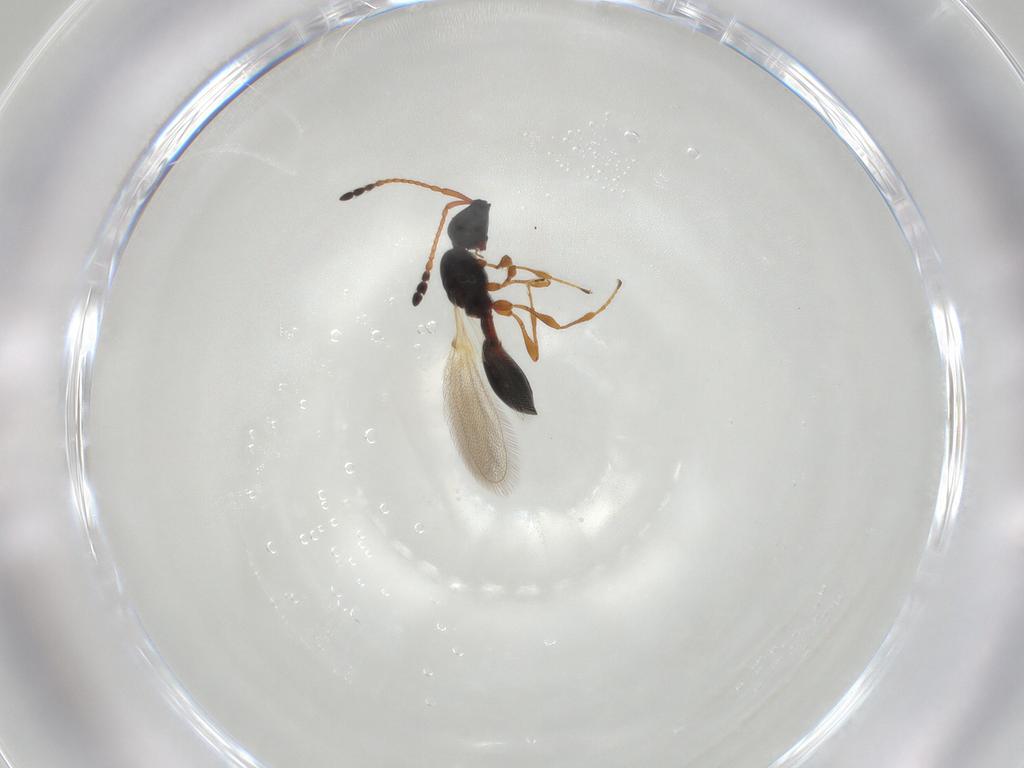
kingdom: Animalia
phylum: Arthropoda
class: Insecta
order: Hymenoptera
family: Diapriidae
